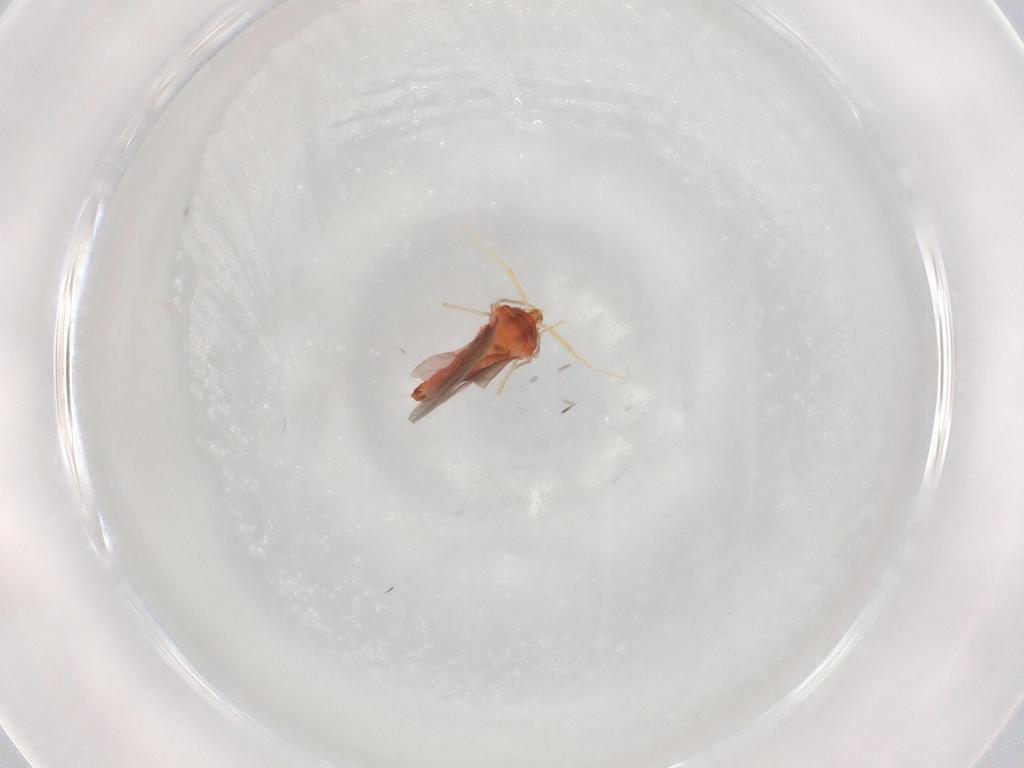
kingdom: Animalia
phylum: Arthropoda
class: Insecta
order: Hemiptera
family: Aleyrodidae
